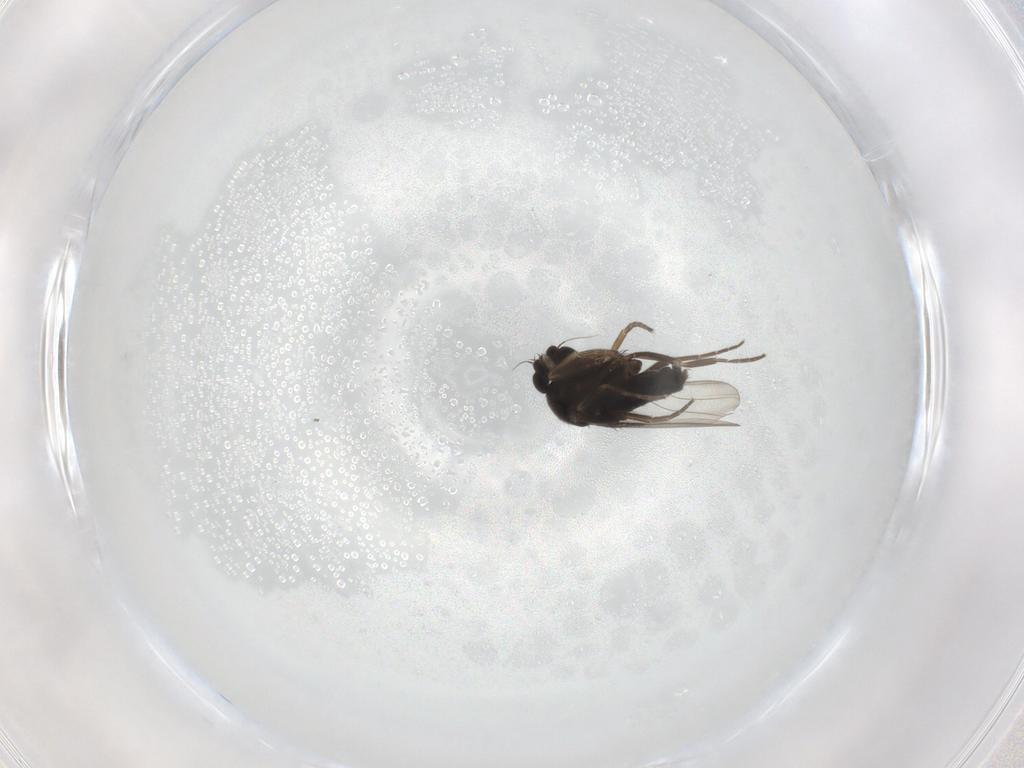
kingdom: Animalia
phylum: Arthropoda
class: Insecta
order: Diptera
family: Phoridae
